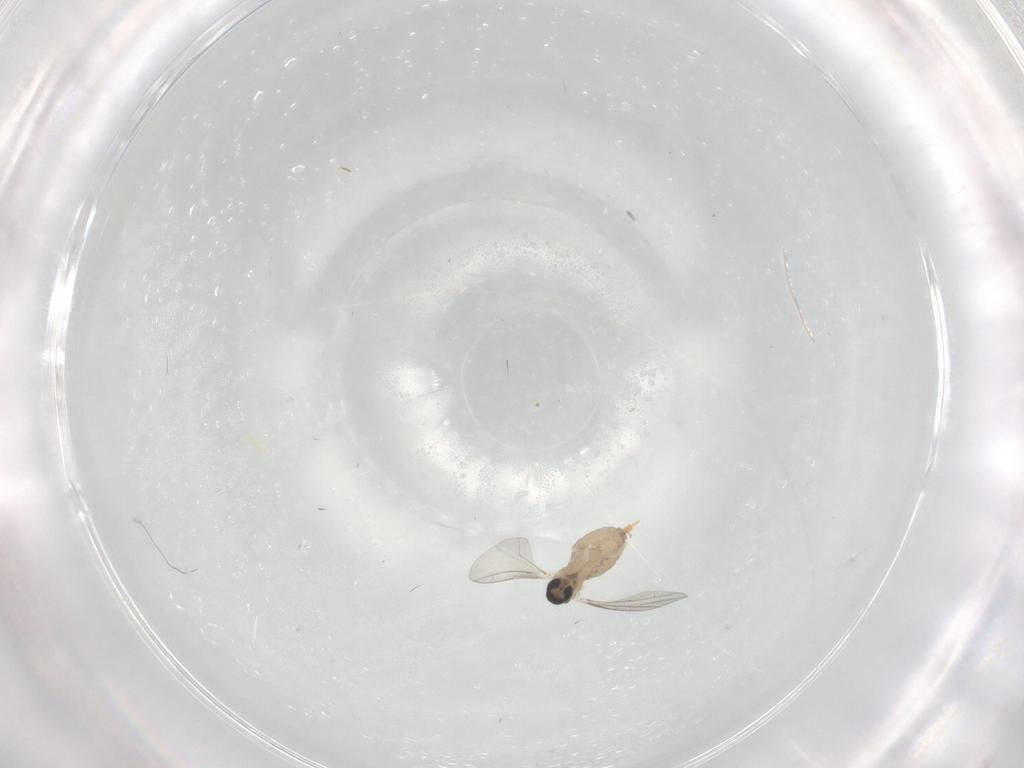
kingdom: Animalia
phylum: Arthropoda
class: Insecta
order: Diptera
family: Cecidomyiidae
